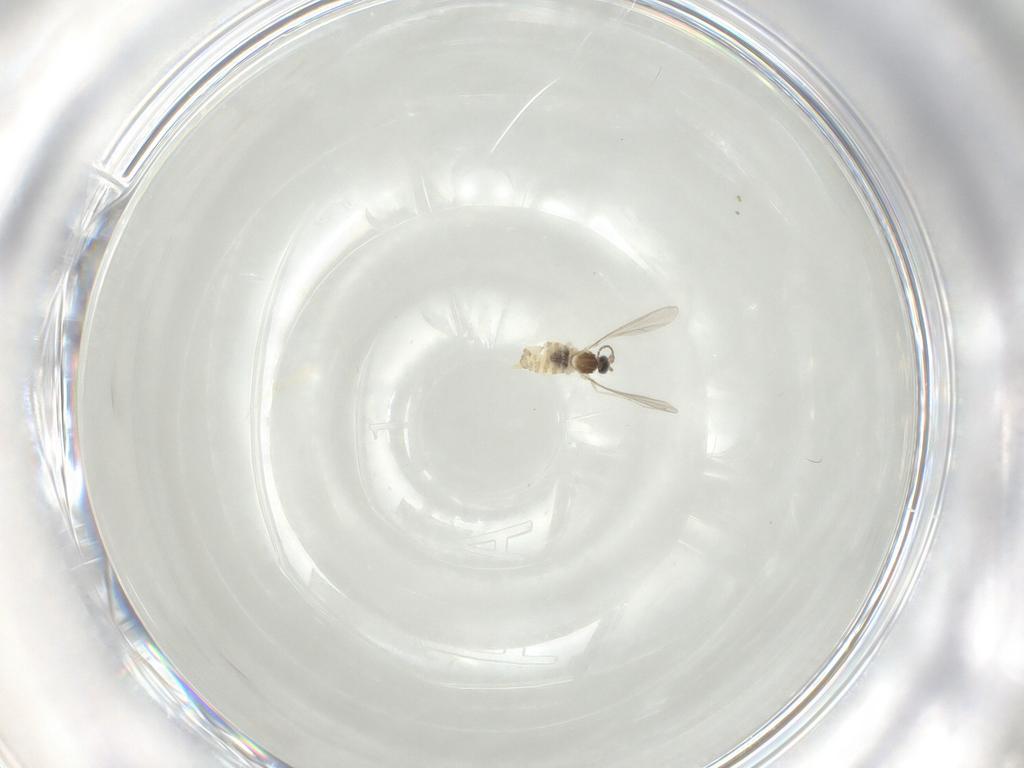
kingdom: Animalia
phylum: Arthropoda
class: Insecta
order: Diptera
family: Cecidomyiidae
